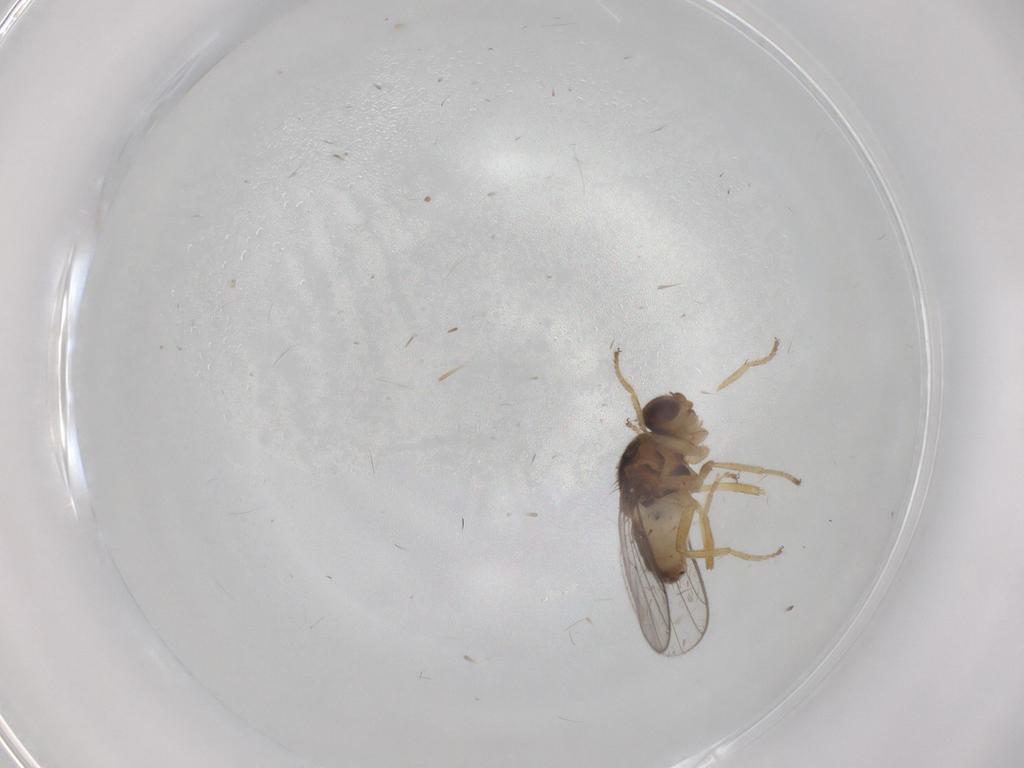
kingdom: Animalia
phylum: Arthropoda
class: Insecta
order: Diptera
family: Chloropidae
